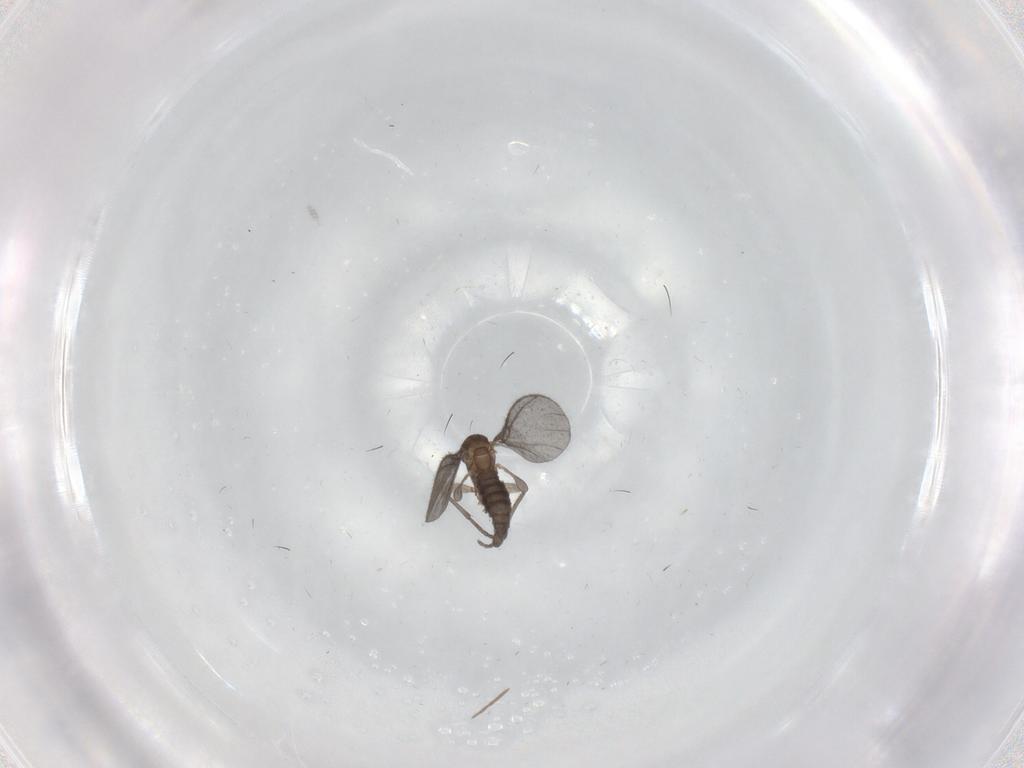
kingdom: Animalia
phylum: Arthropoda
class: Insecta
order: Diptera
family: Sciaridae
